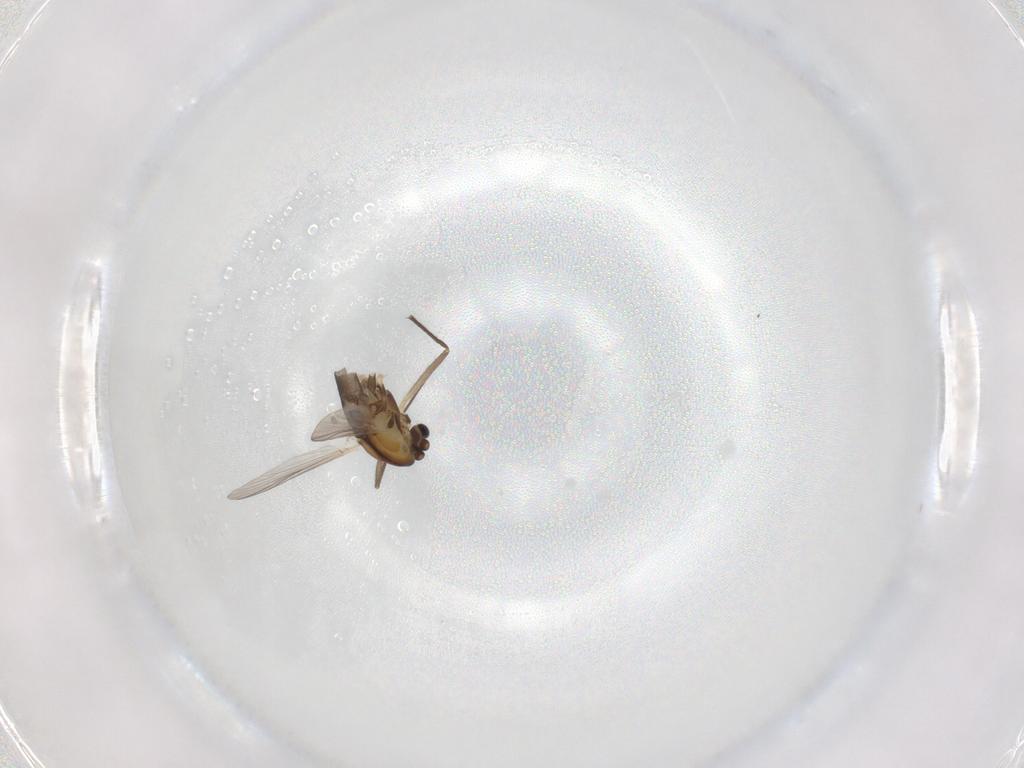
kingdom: Animalia
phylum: Arthropoda
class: Insecta
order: Diptera
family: Chironomidae
